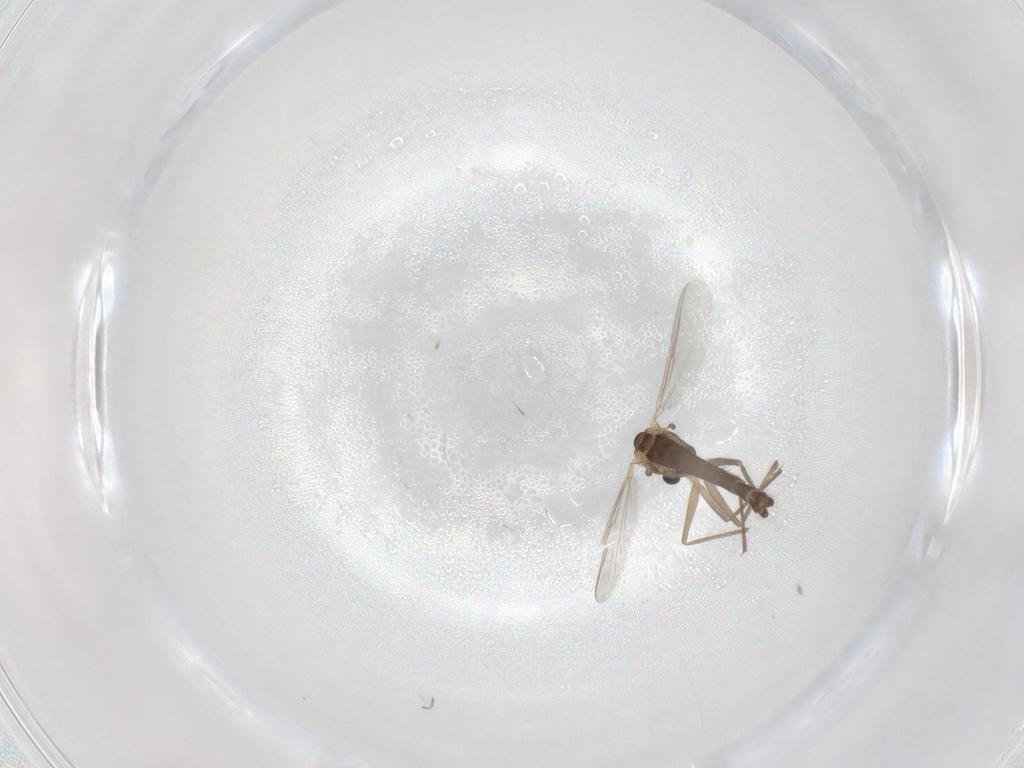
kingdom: Animalia
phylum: Arthropoda
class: Insecta
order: Diptera
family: Chironomidae
